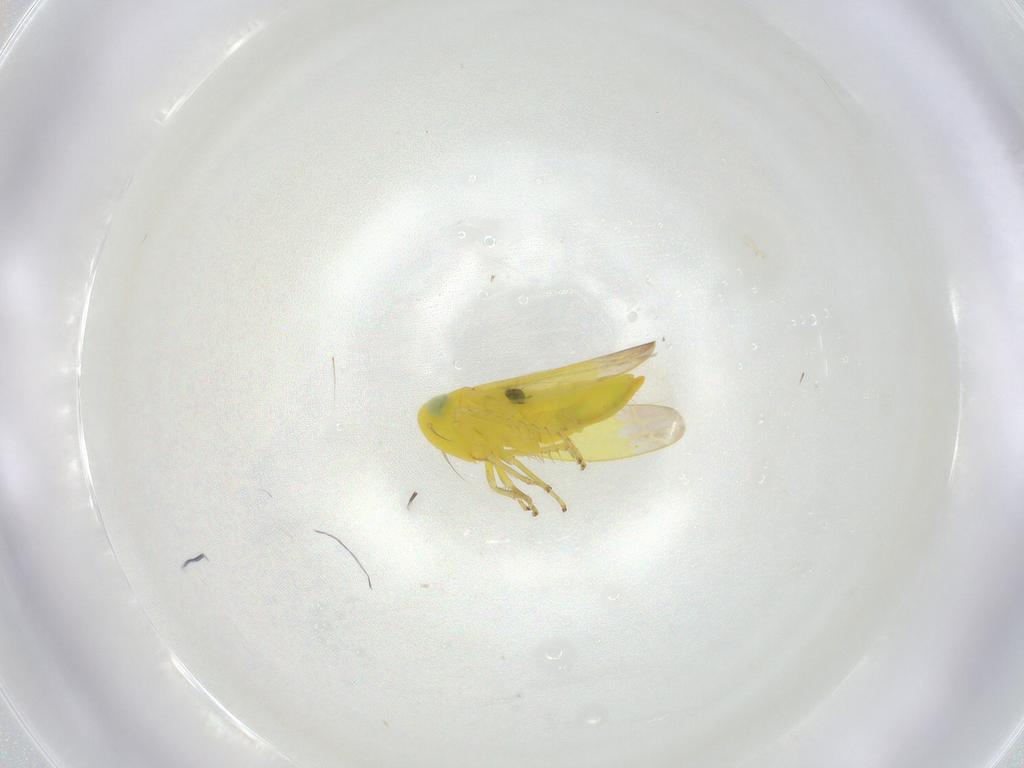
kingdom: Animalia
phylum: Arthropoda
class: Insecta
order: Hemiptera
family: Cicadellidae
